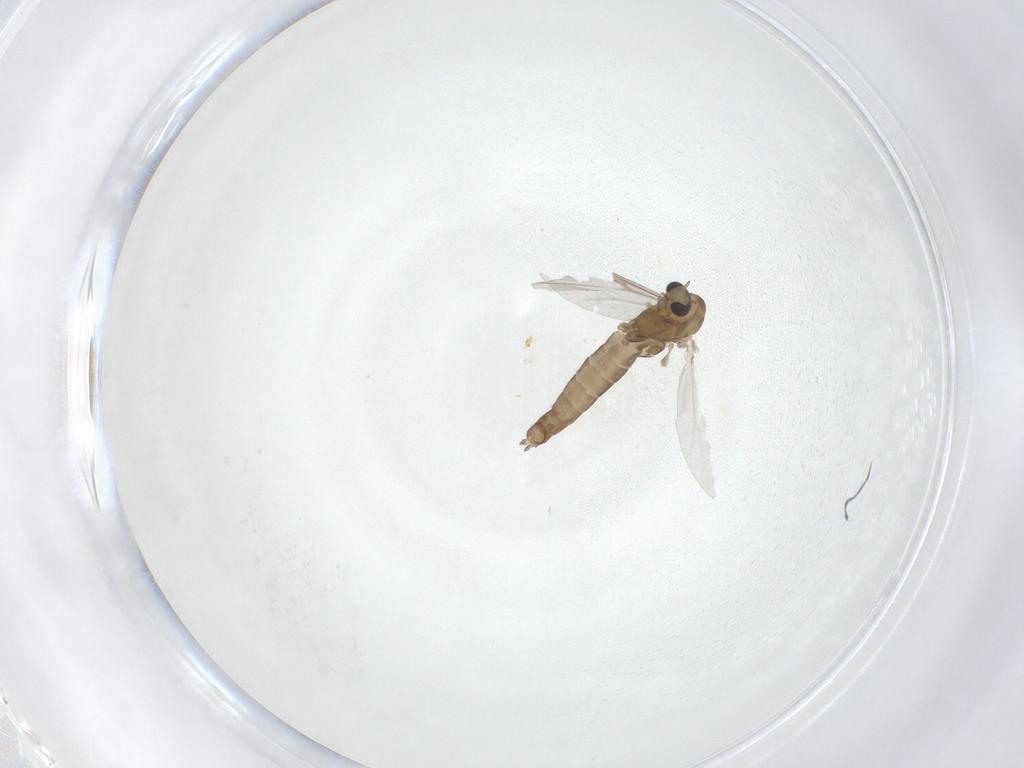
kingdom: Animalia
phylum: Arthropoda
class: Insecta
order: Diptera
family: Chironomidae
